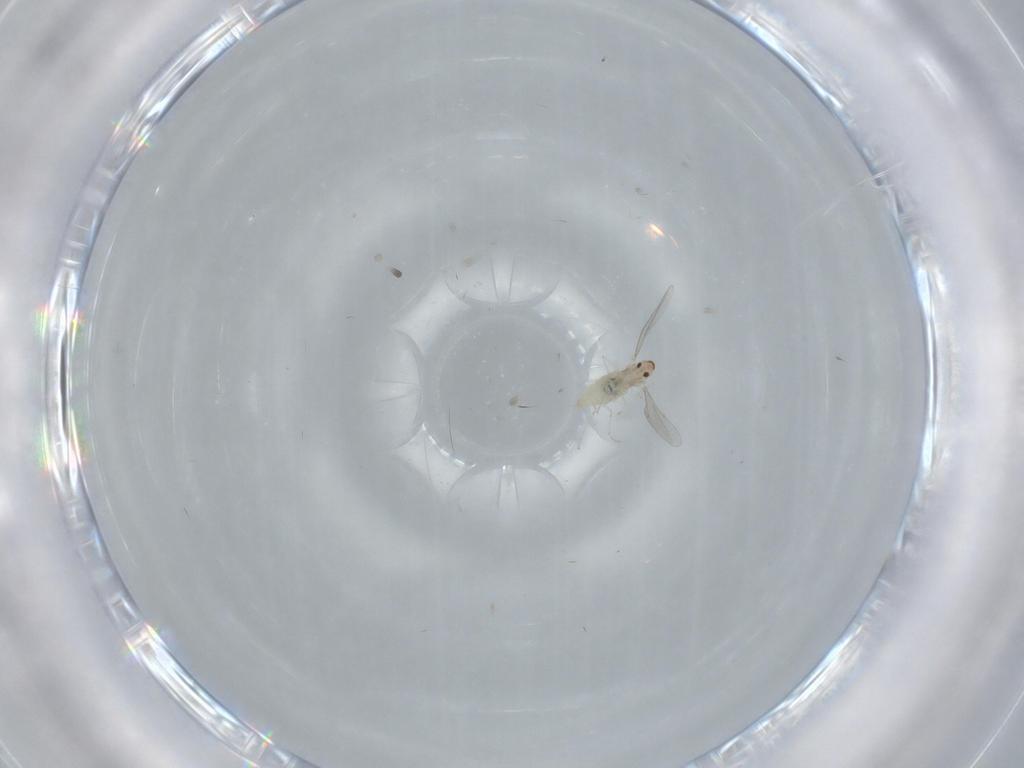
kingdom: Animalia
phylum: Arthropoda
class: Insecta
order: Diptera
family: Cecidomyiidae
